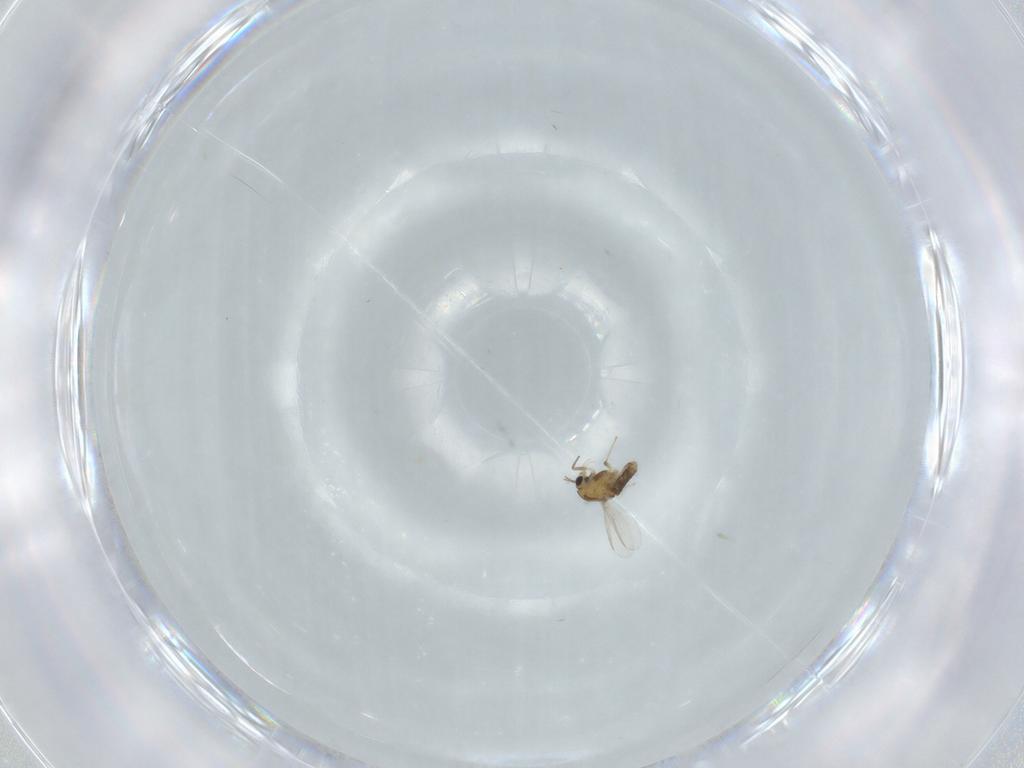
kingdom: Animalia
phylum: Arthropoda
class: Insecta
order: Diptera
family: Chironomidae
